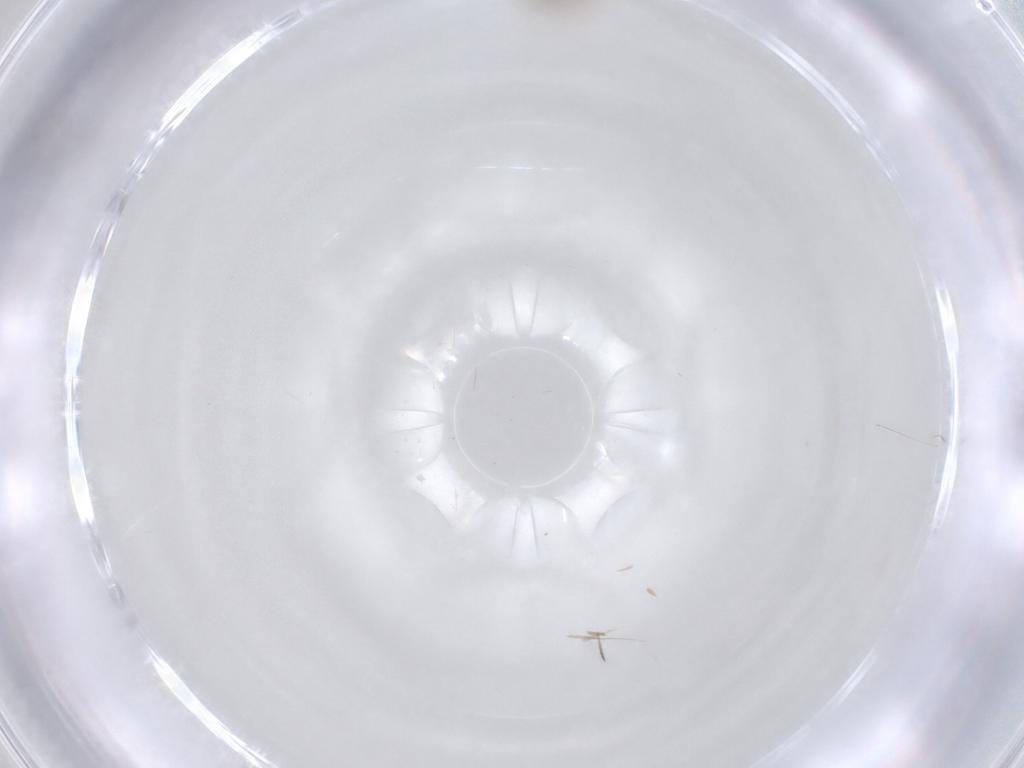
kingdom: Animalia
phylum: Arthropoda
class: Insecta
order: Diptera
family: Cecidomyiidae
